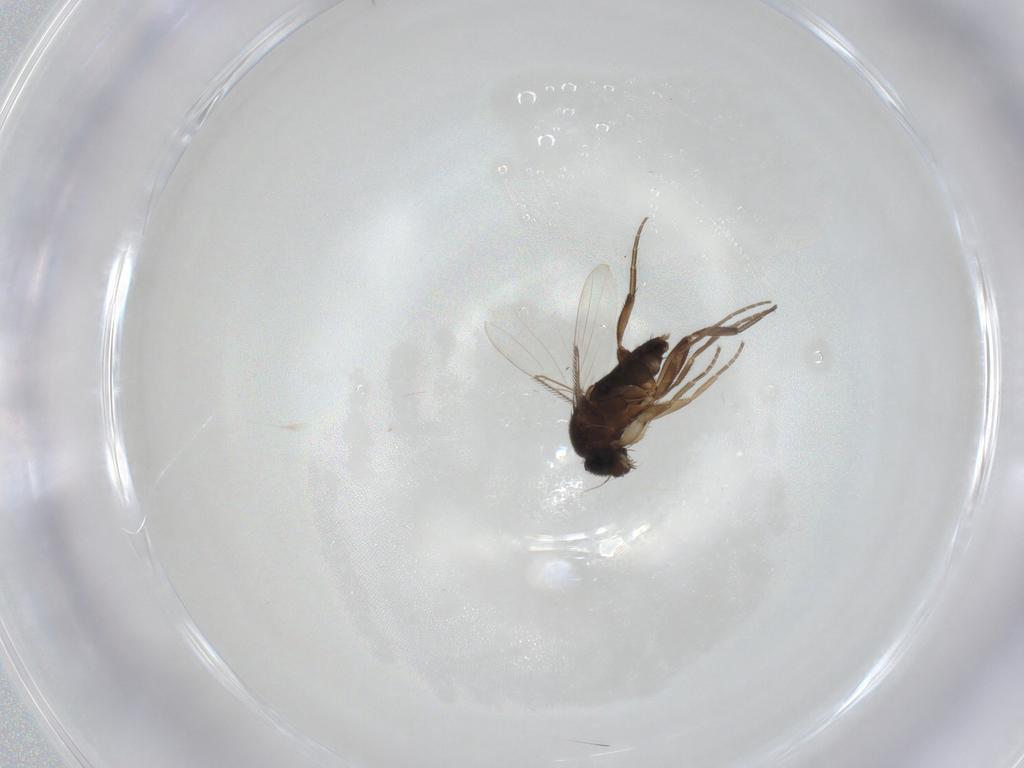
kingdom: Animalia
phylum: Arthropoda
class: Insecta
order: Diptera
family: Phoridae
